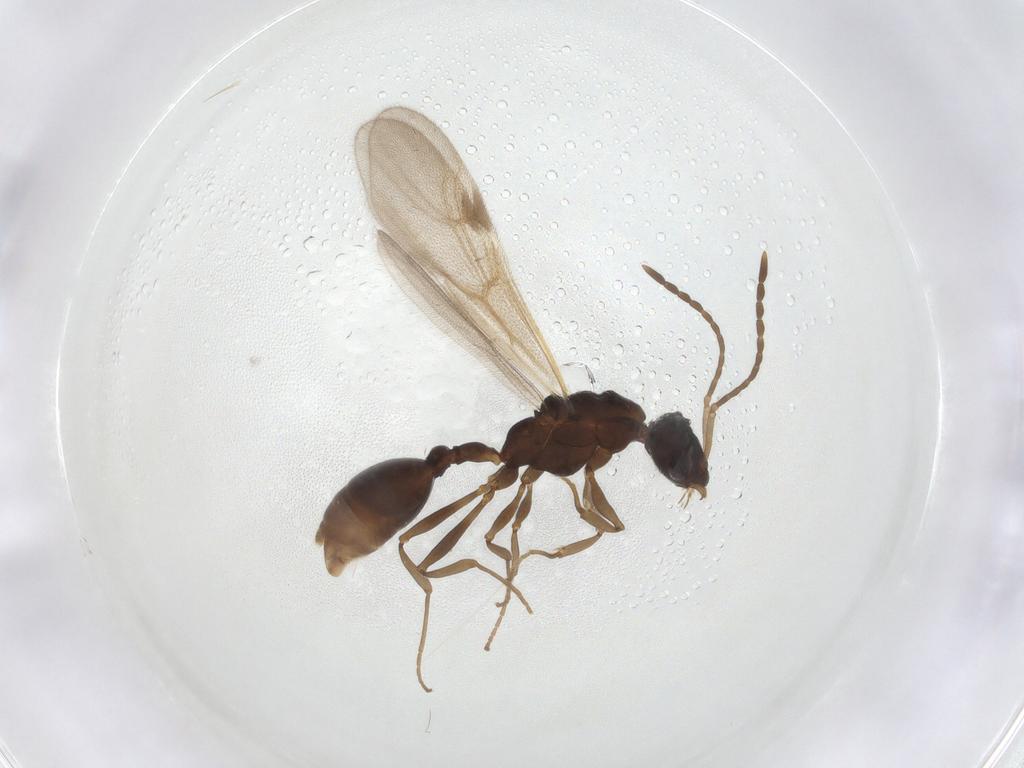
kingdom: Animalia
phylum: Arthropoda
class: Insecta
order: Hymenoptera
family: Formicidae
